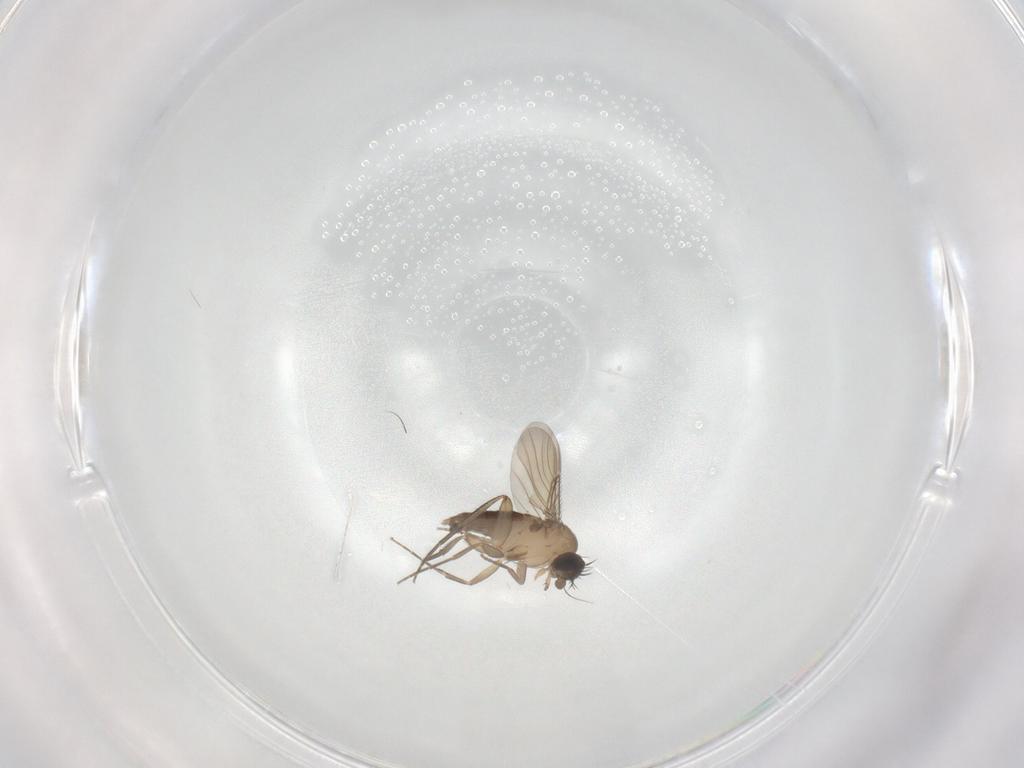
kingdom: Animalia
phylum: Arthropoda
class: Insecta
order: Diptera
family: Phoridae
